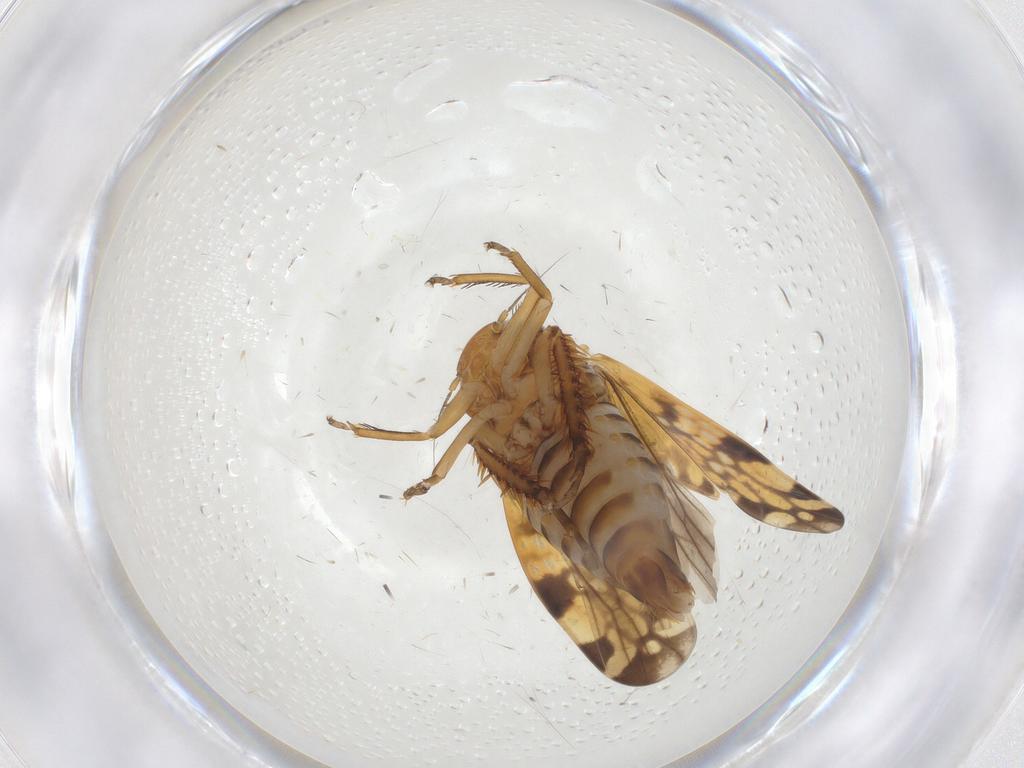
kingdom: Animalia
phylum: Arthropoda
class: Insecta
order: Hemiptera
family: Cicadellidae
